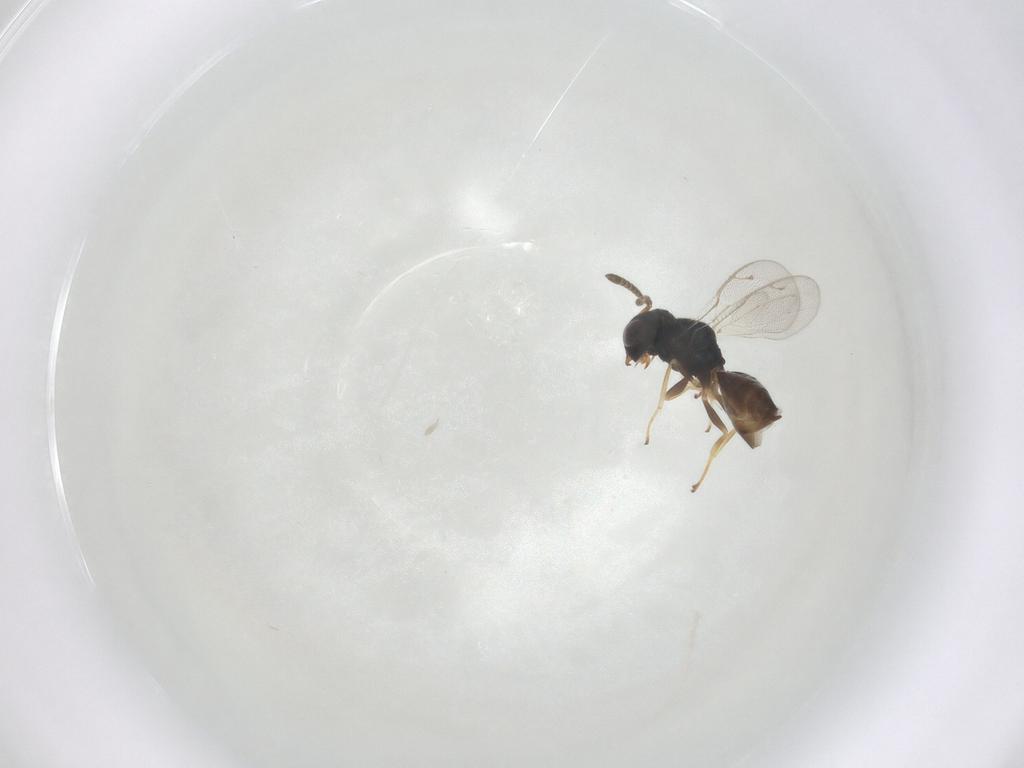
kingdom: Animalia
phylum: Arthropoda
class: Insecta
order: Hymenoptera
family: Pteromalidae
